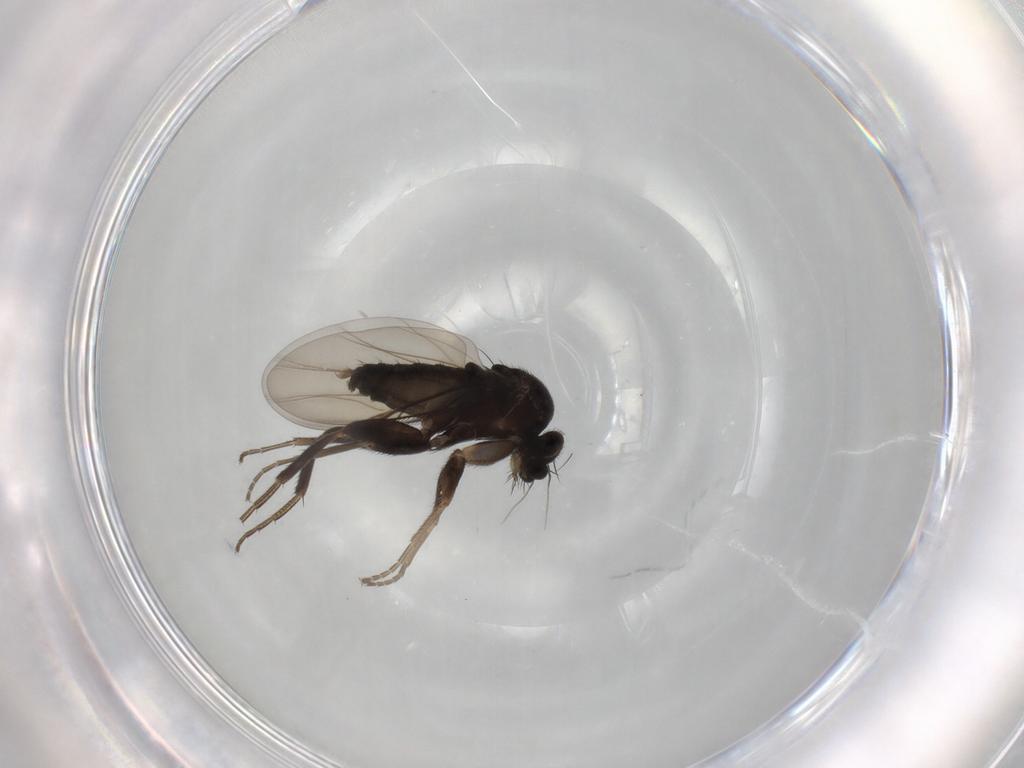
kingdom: Animalia
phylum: Arthropoda
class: Insecta
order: Diptera
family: Phoridae
